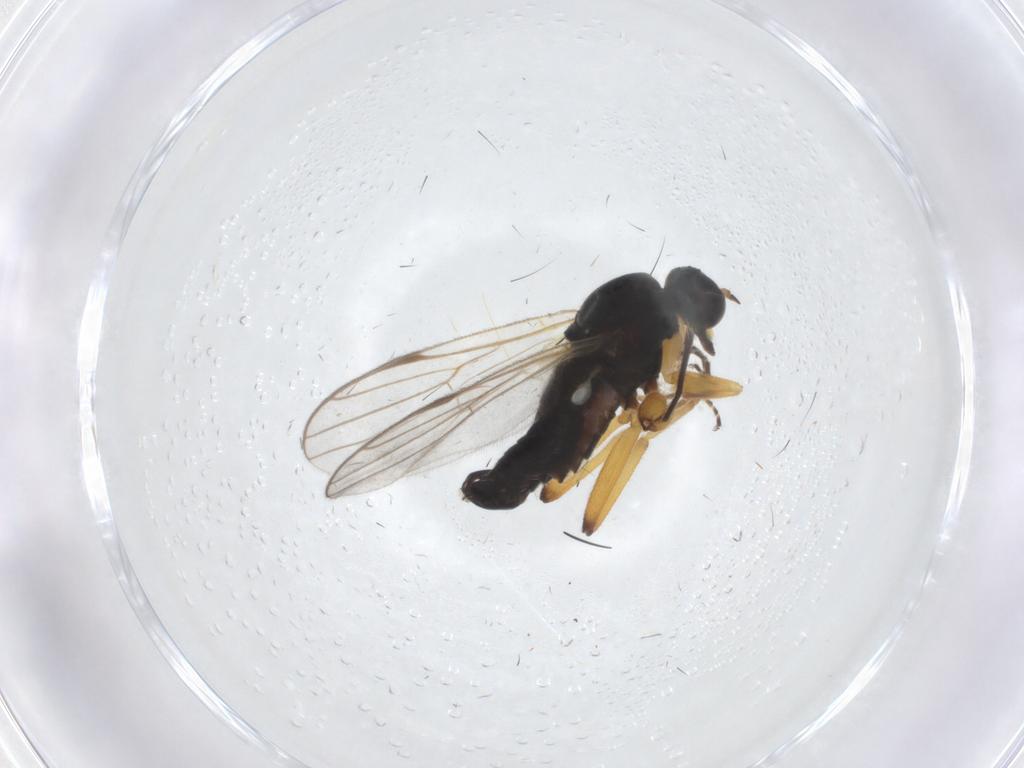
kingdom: Animalia
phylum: Arthropoda
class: Insecta
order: Diptera
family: Hybotidae
